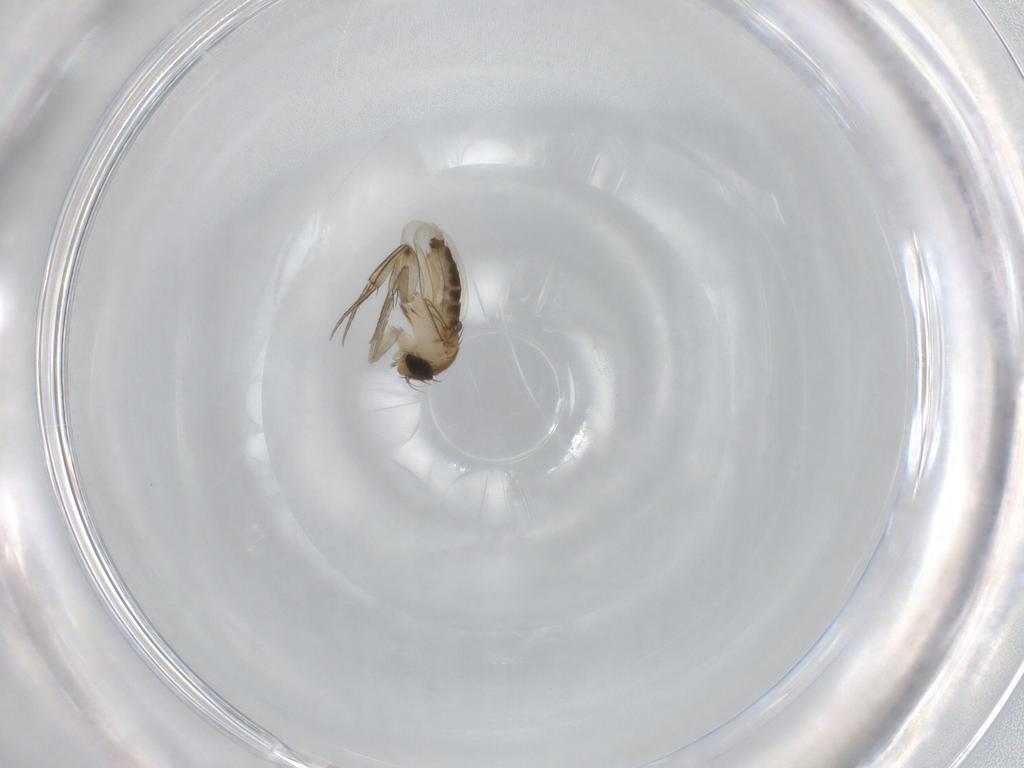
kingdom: Animalia
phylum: Arthropoda
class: Insecta
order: Diptera
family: Phoridae
